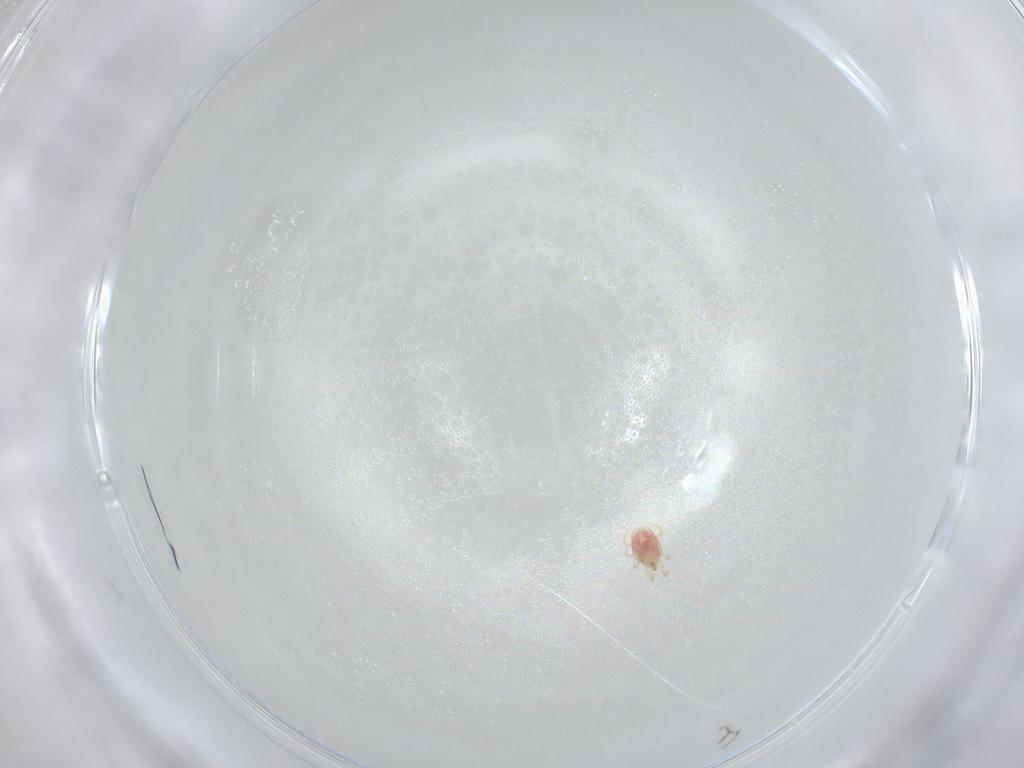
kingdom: Animalia
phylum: Arthropoda
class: Arachnida
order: Mesostigmata
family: Phytoseiidae
